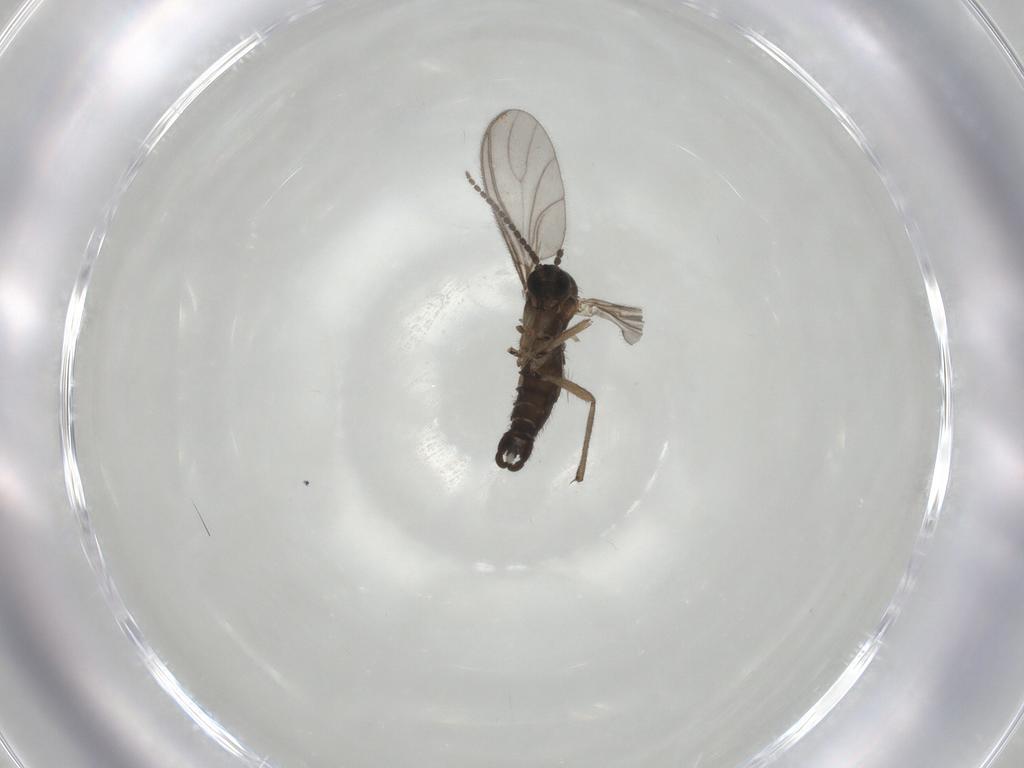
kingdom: Animalia
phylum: Arthropoda
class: Insecta
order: Diptera
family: Sciaridae
